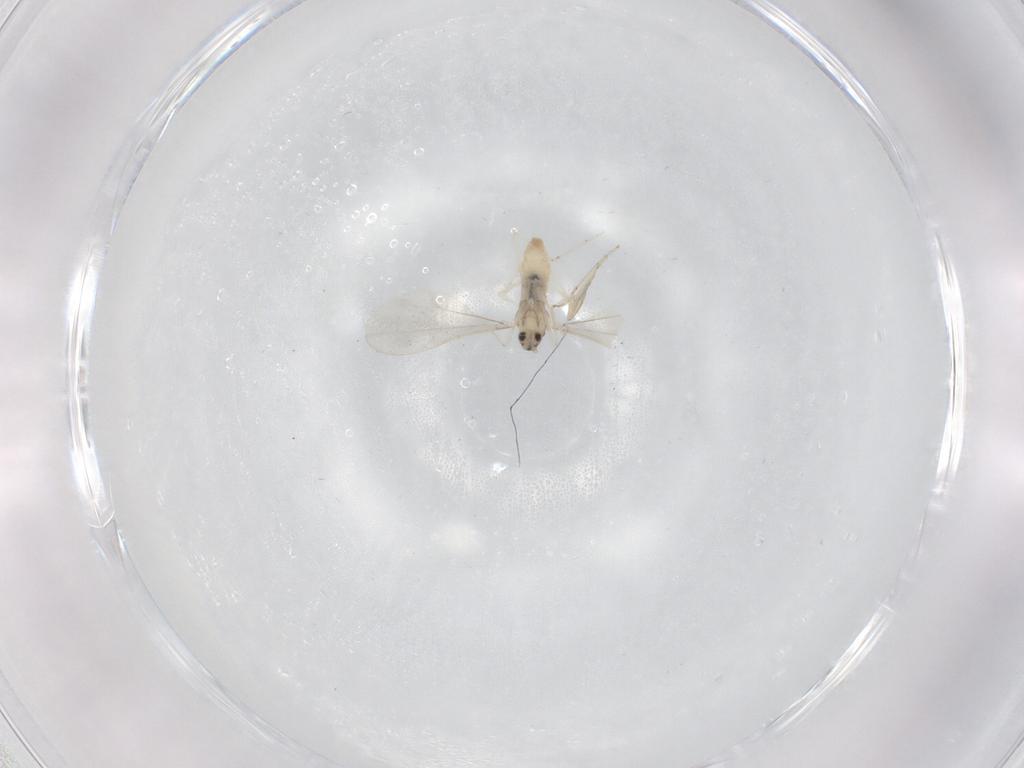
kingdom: Animalia
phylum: Arthropoda
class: Insecta
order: Diptera
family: Cecidomyiidae
